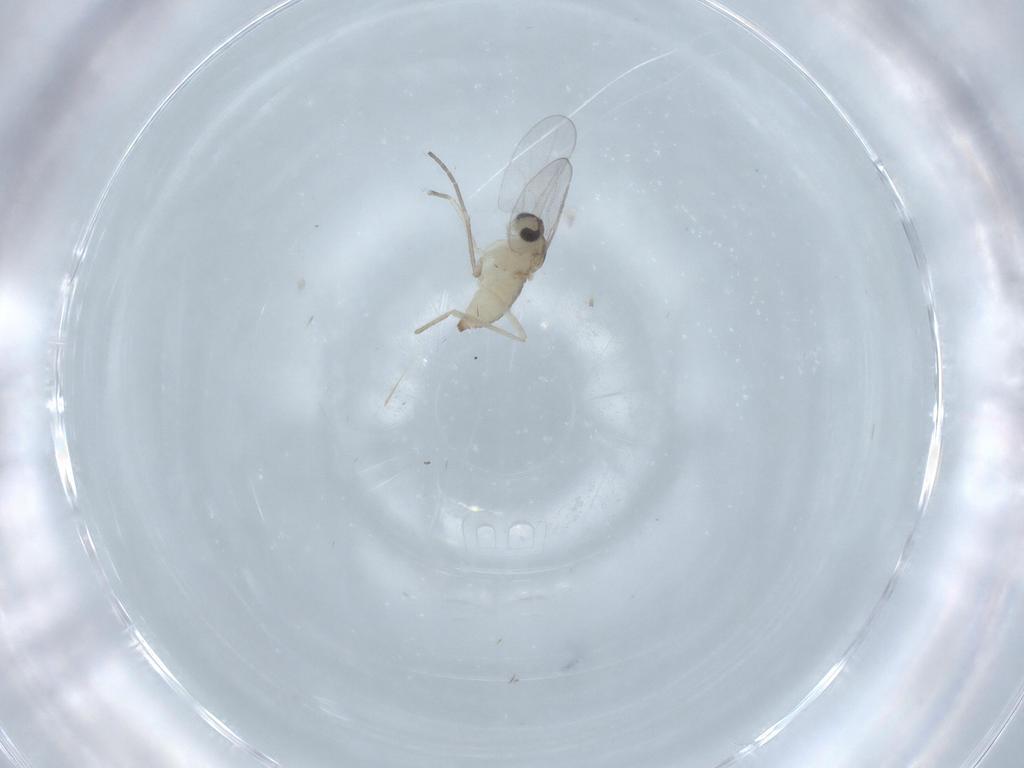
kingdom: Animalia
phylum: Arthropoda
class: Insecta
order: Diptera
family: Cecidomyiidae
